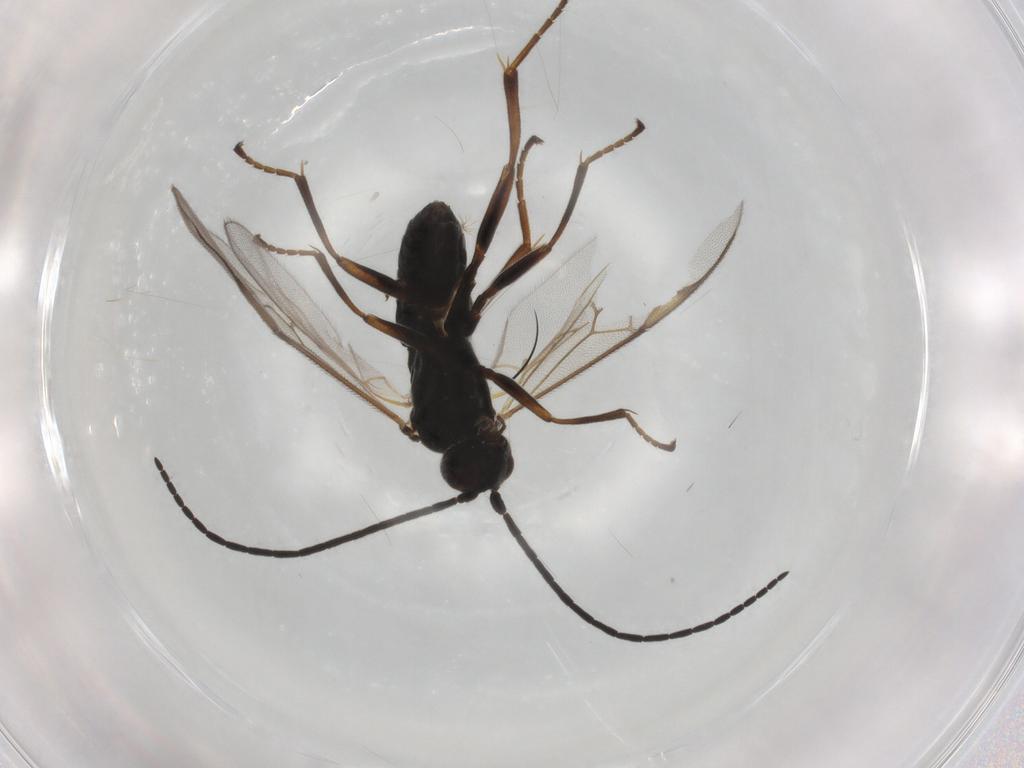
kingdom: Animalia
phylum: Arthropoda
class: Insecta
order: Hymenoptera
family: Braconidae
